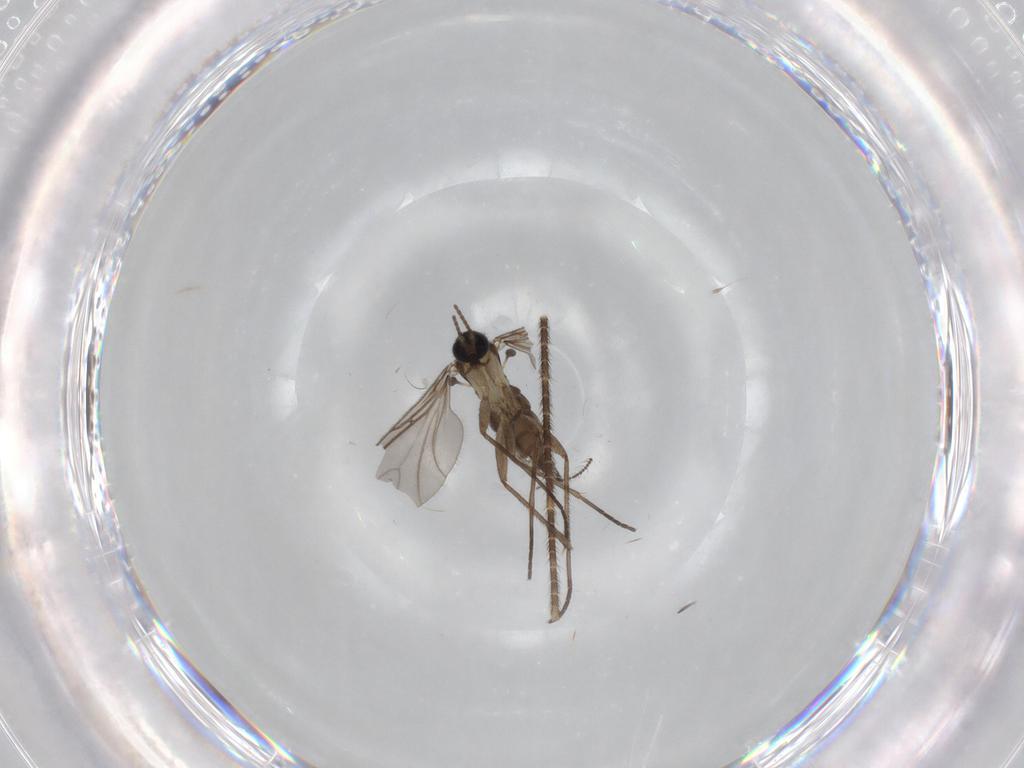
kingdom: Animalia
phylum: Arthropoda
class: Insecta
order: Diptera
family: Sciaridae
